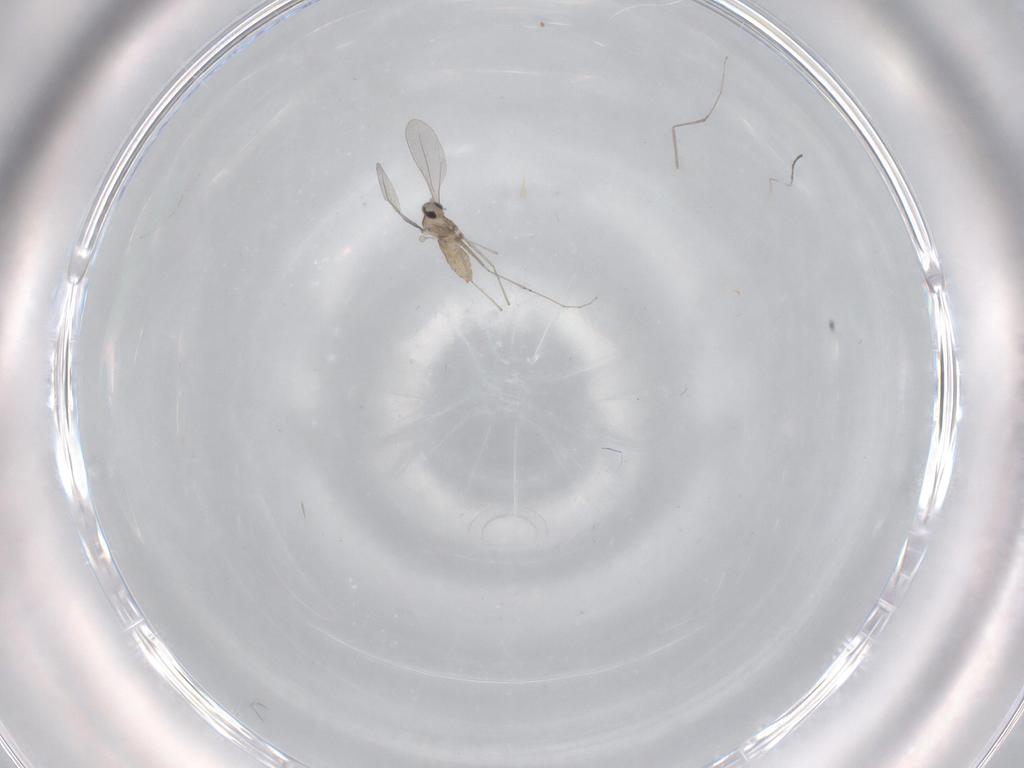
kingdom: Animalia
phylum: Arthropoda
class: Insecta
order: Diptera
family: Cecidomyiidae
